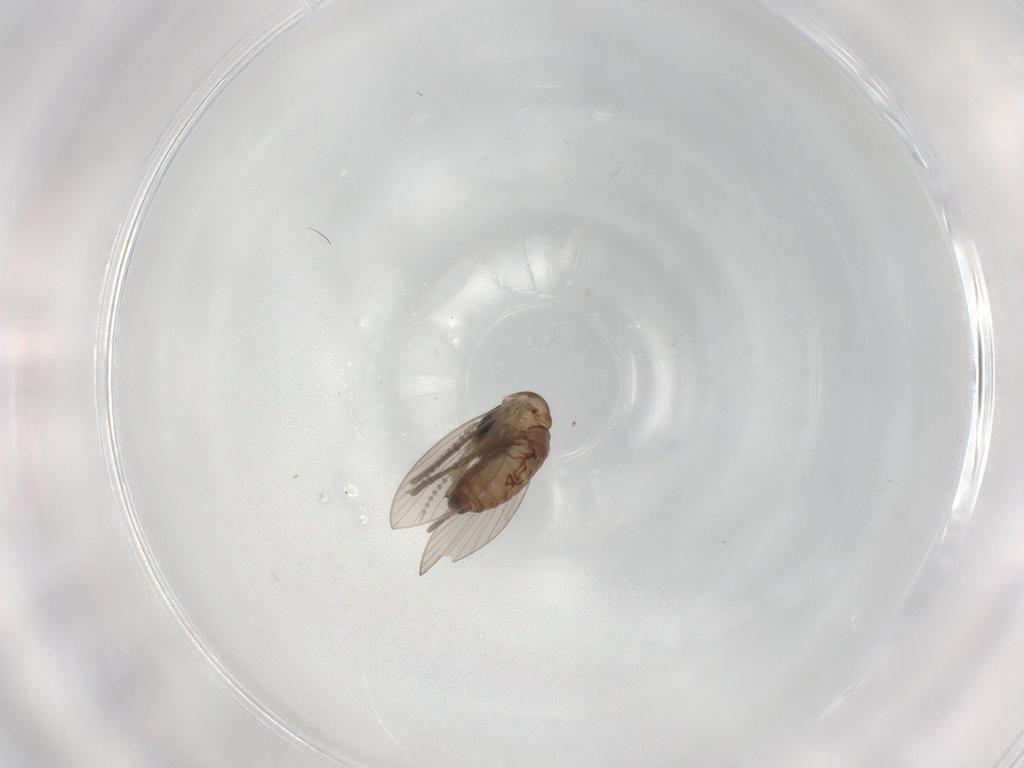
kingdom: Animalia
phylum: Arthropoda
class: Insecta
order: Diptera
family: Psychodidae
